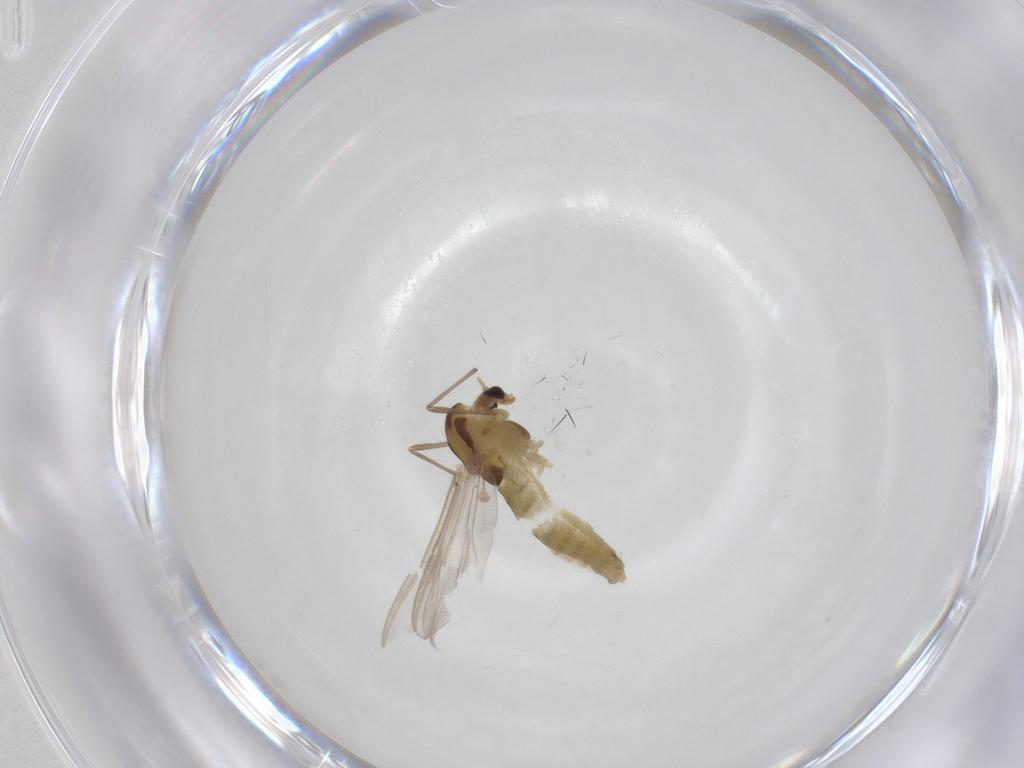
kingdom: Animalia
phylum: Arthropoda
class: Insecta
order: Diptera
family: Chironomidae
